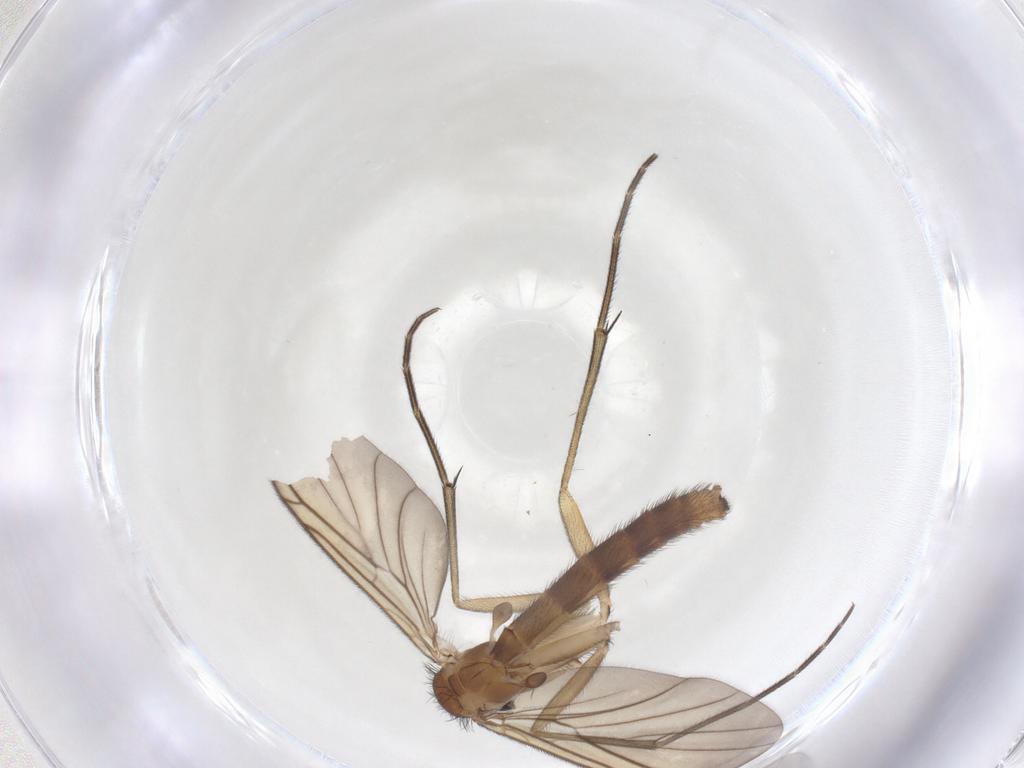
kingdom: Animalia
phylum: Arthropoda
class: Insecta
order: Diptera
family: Keroplatidae
